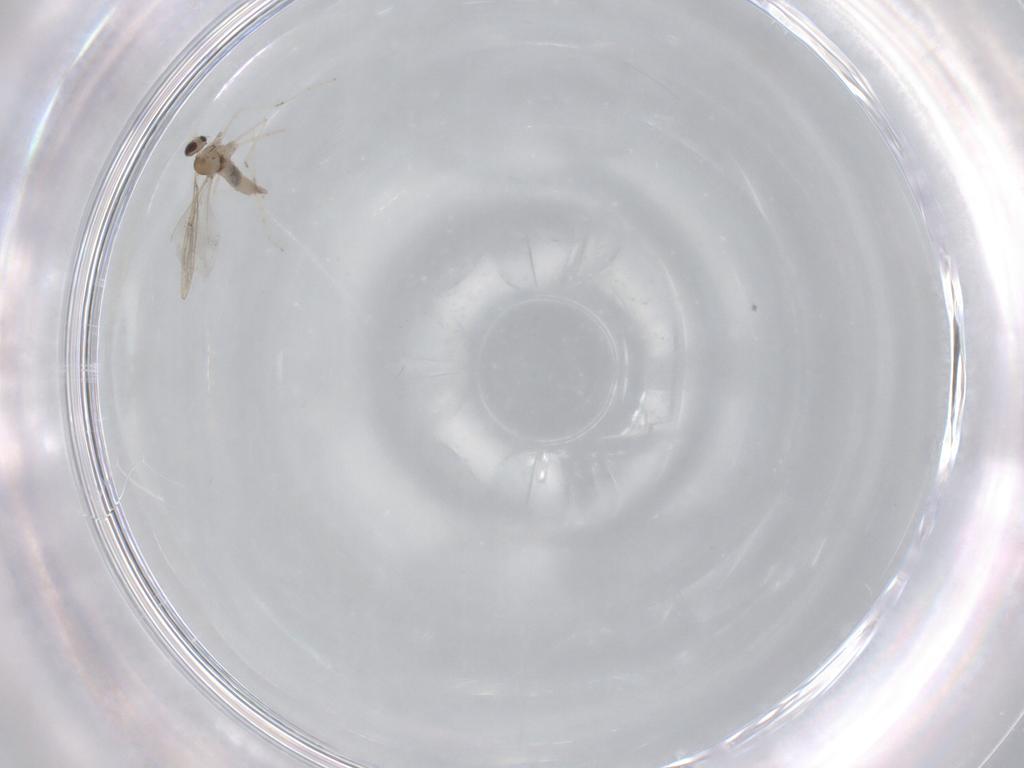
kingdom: Animalia
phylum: Arthropoda
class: Insecta
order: Diptera
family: Cecidomyiidae
